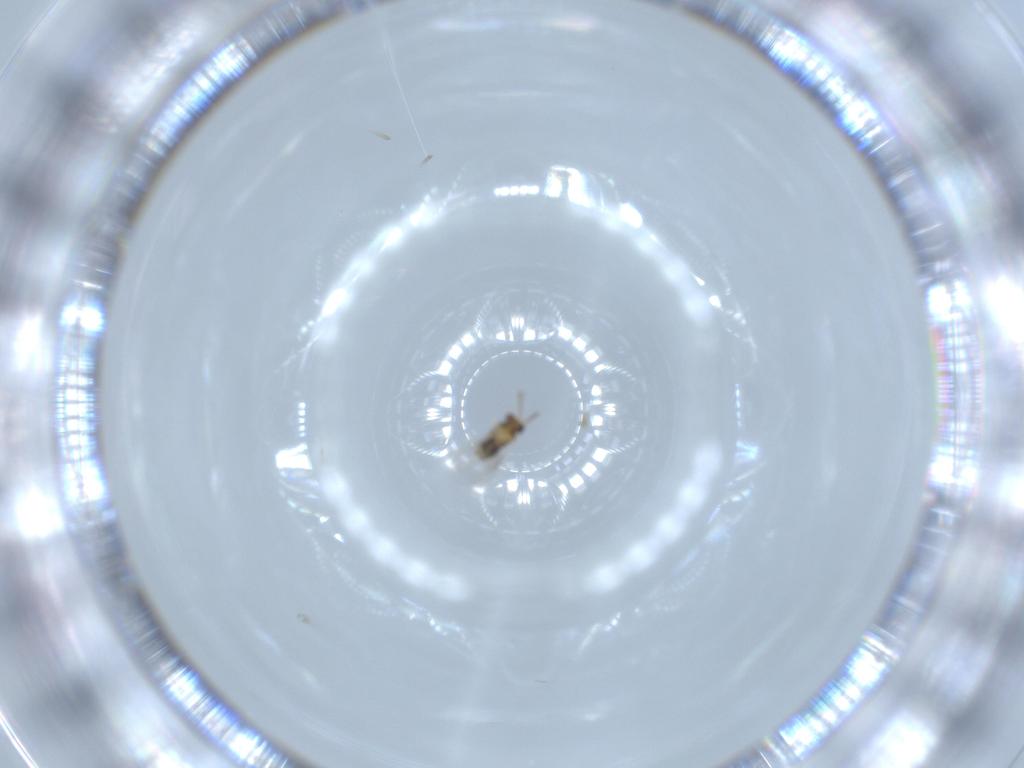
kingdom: Animalia
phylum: Arthropoda
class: Insecta
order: Hymenoptera
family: Aphelinidae
